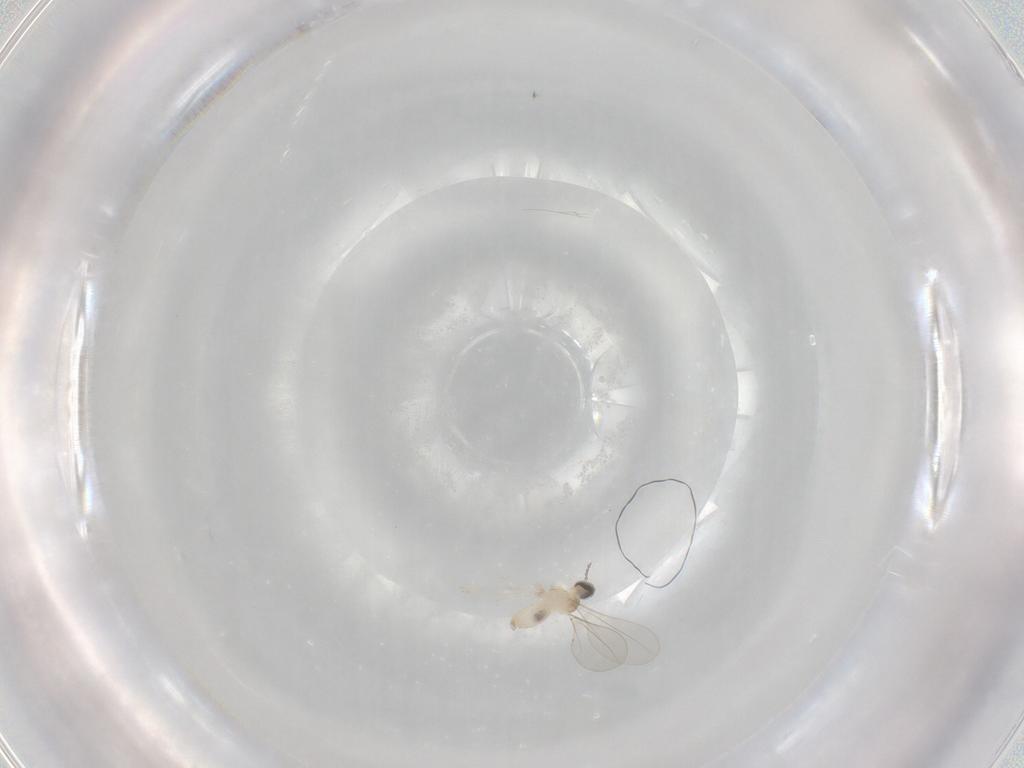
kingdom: Animalia
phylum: Arthropoda
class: Insecta
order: Diptera
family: Cecidomyiidae
